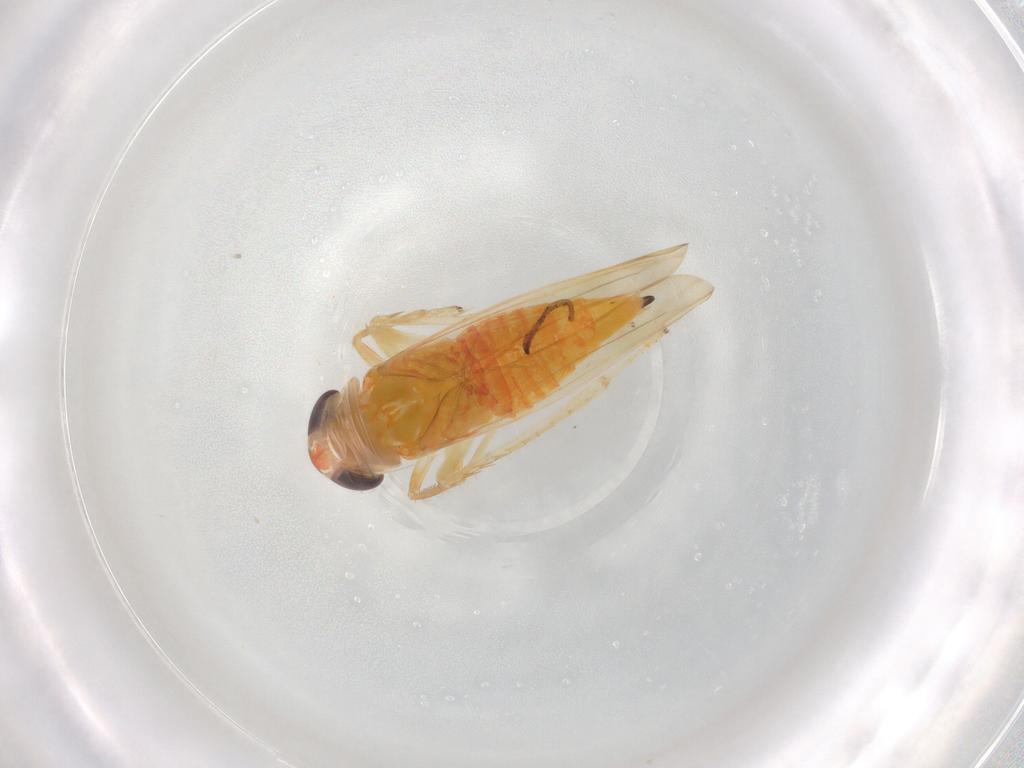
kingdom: Animalia
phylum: Arthropoda
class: Insecta
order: Hemiptera
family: Cicadellidae
